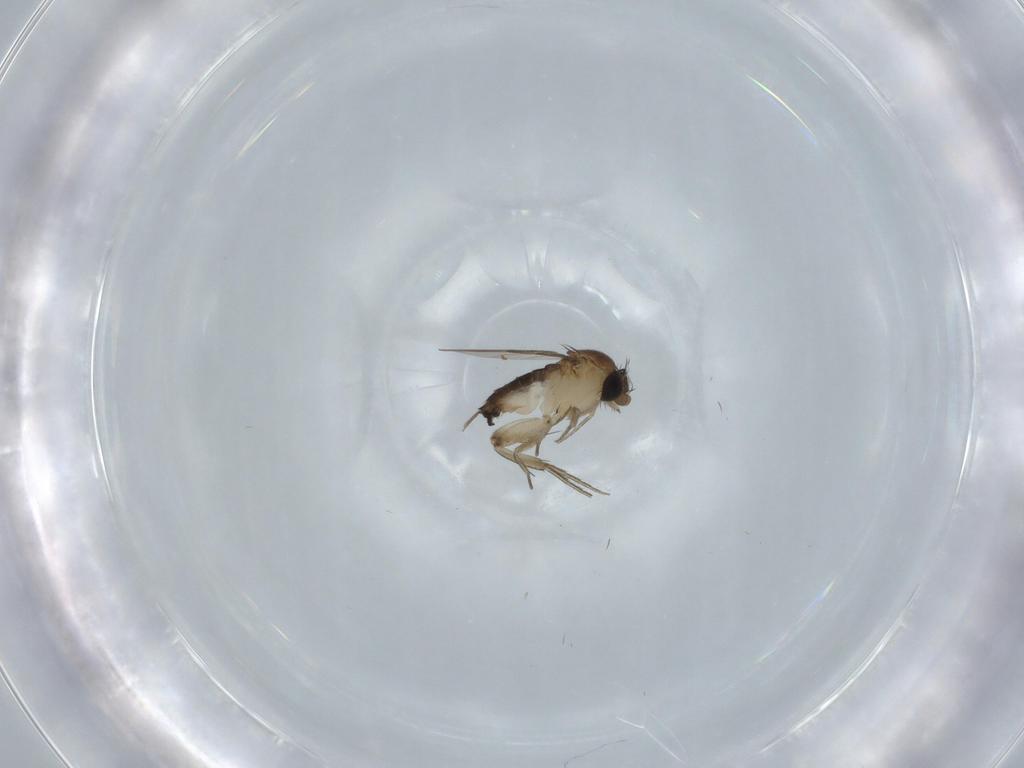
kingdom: Animalia
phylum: Arthropoda
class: Insecta
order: Diptera
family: Phoridae
